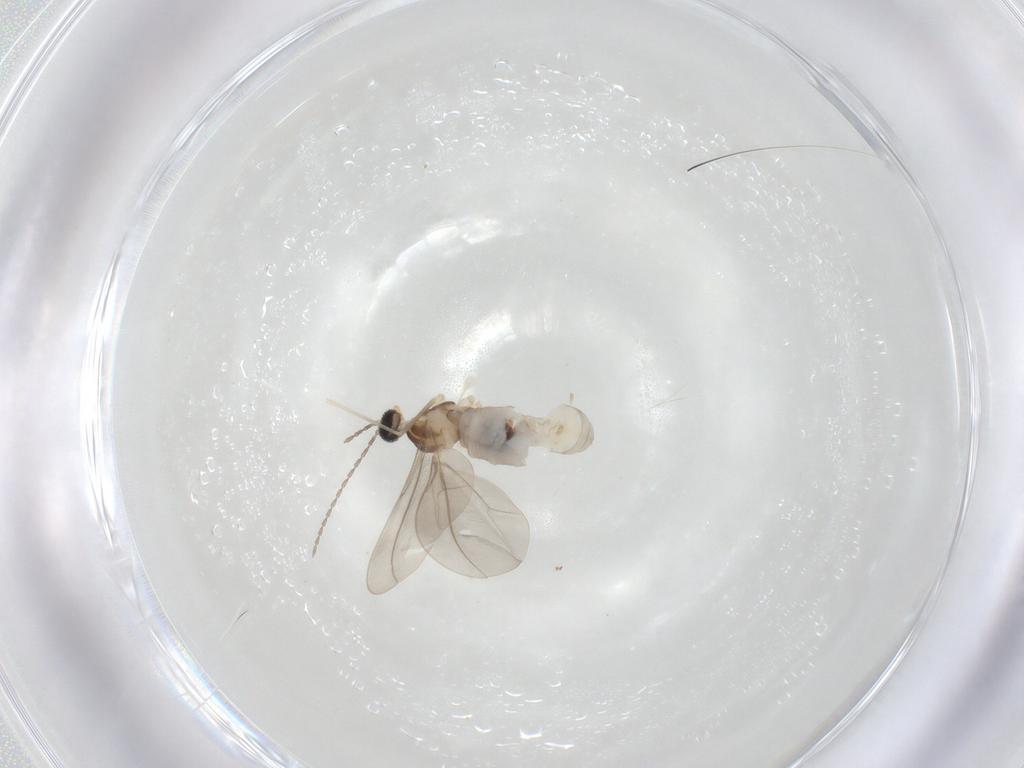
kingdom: Animalia
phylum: Arthropoda
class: Insecta
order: Diptera
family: Cecidomyiidae
